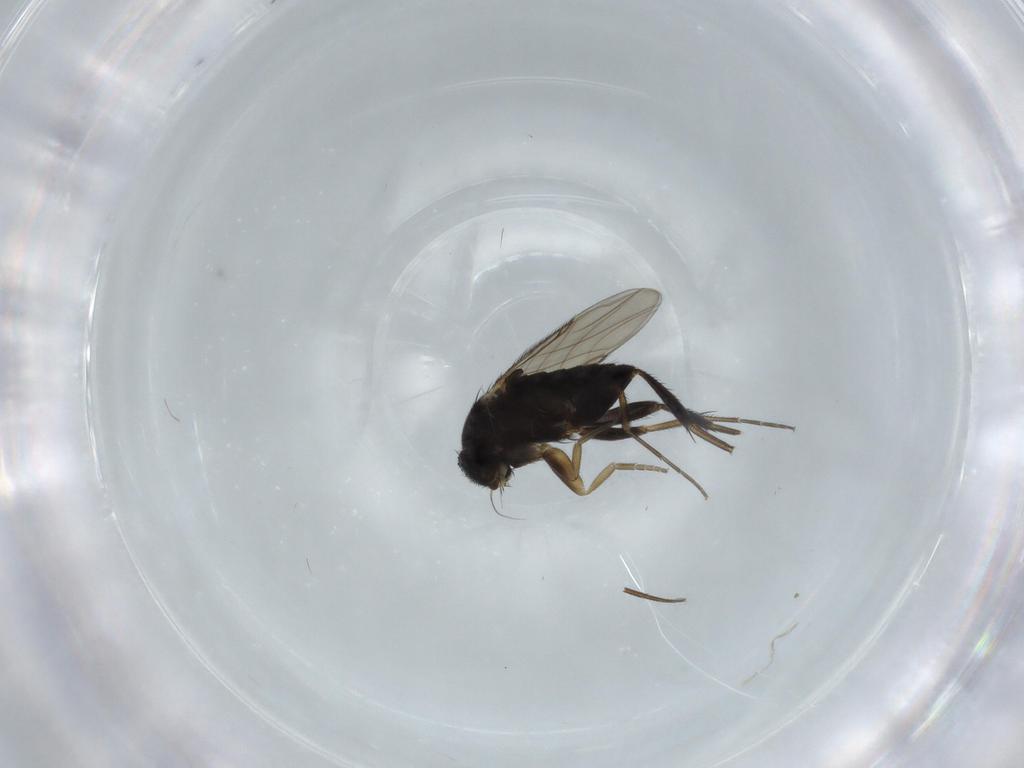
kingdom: Animalia
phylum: Arthropoda
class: Insecta
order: Diptera
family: Phoridae
